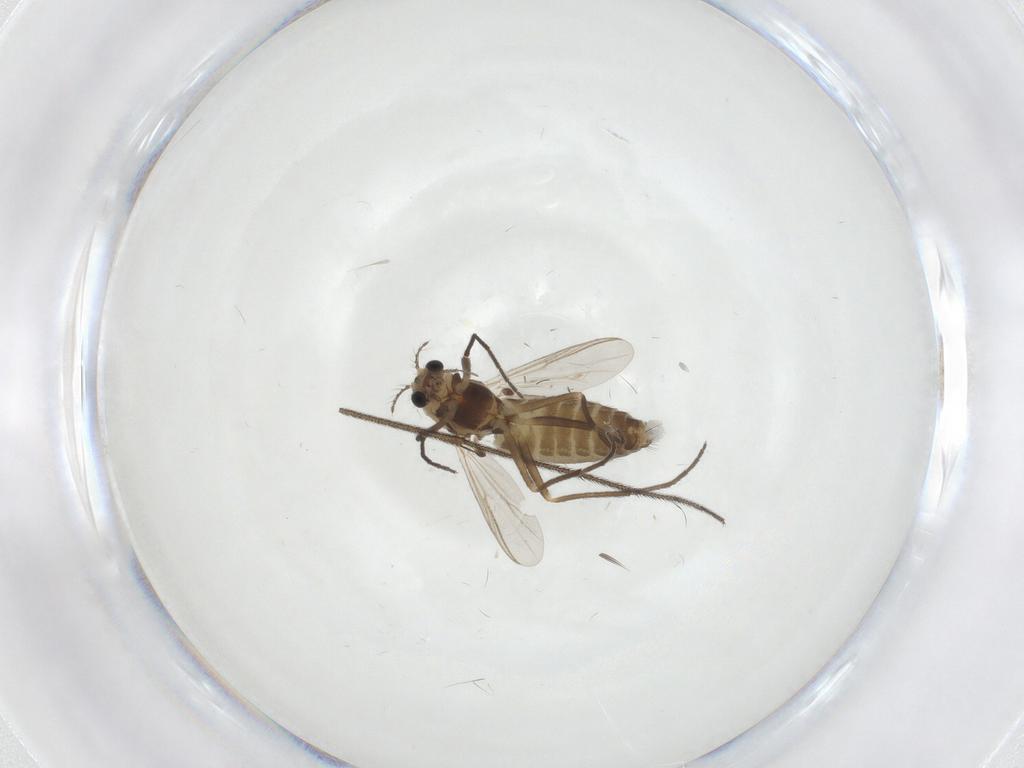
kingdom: Animalia
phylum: Arthropoda
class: Insecta
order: Diptera
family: Chironomidae
